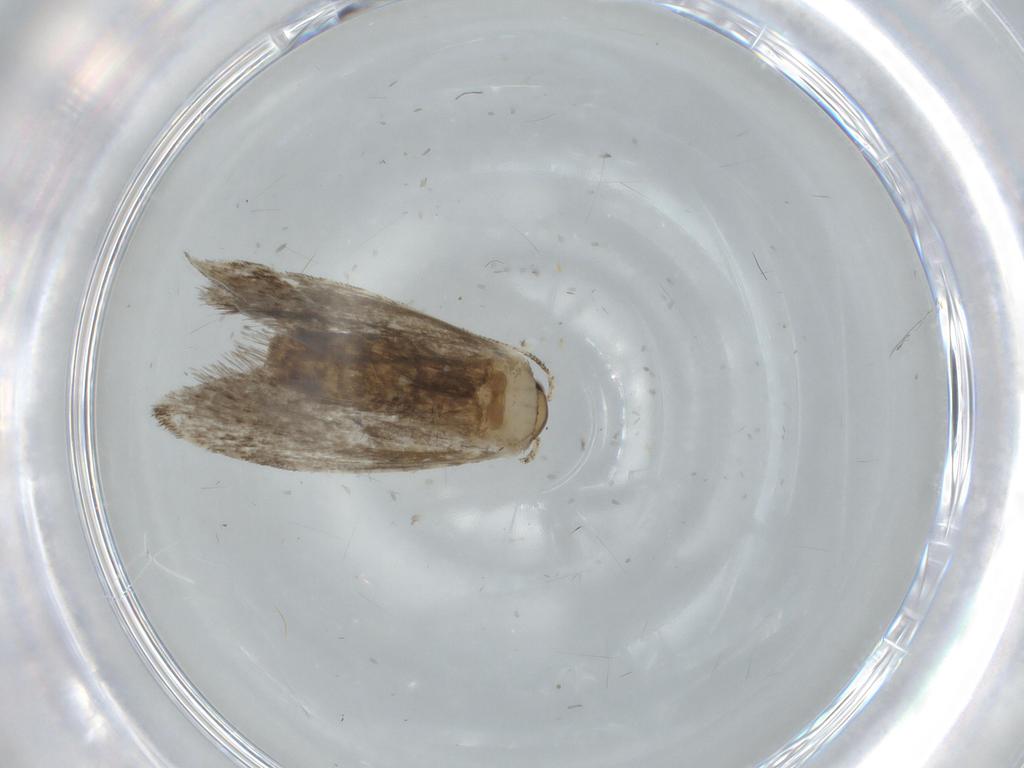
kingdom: Animalia
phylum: Arthropoda
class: Insecta
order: Lepidoptera
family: Tineidae
